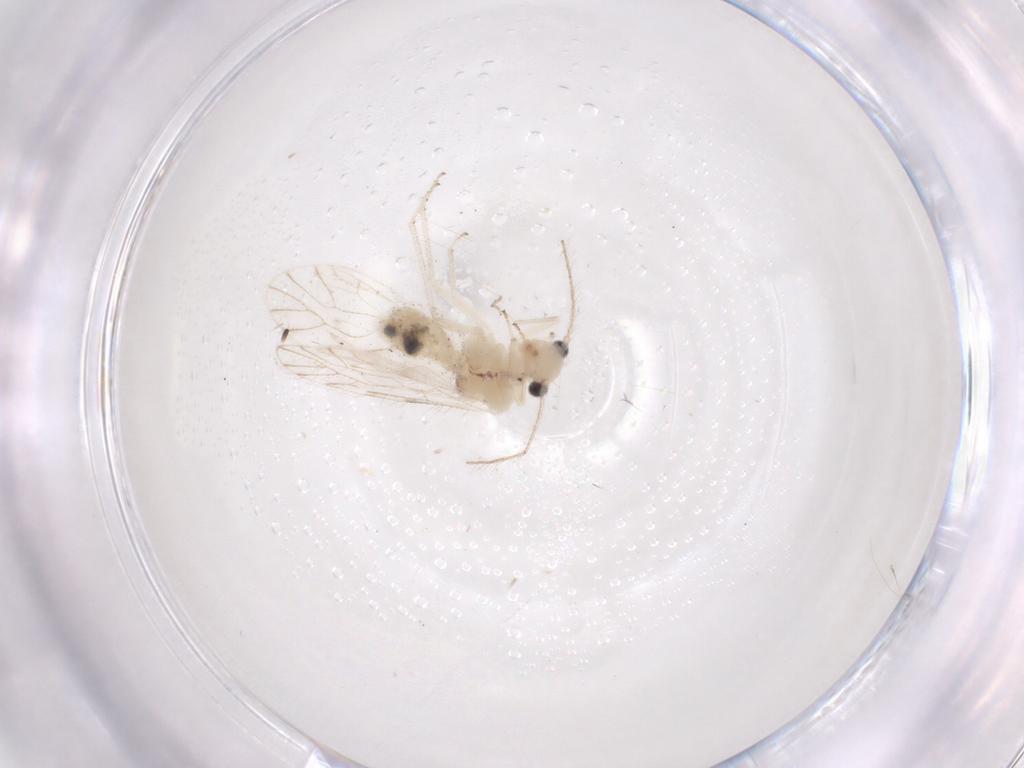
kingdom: Animalia
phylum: Arthropoda
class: Insecta
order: Psocodea
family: Trichopsocidae
